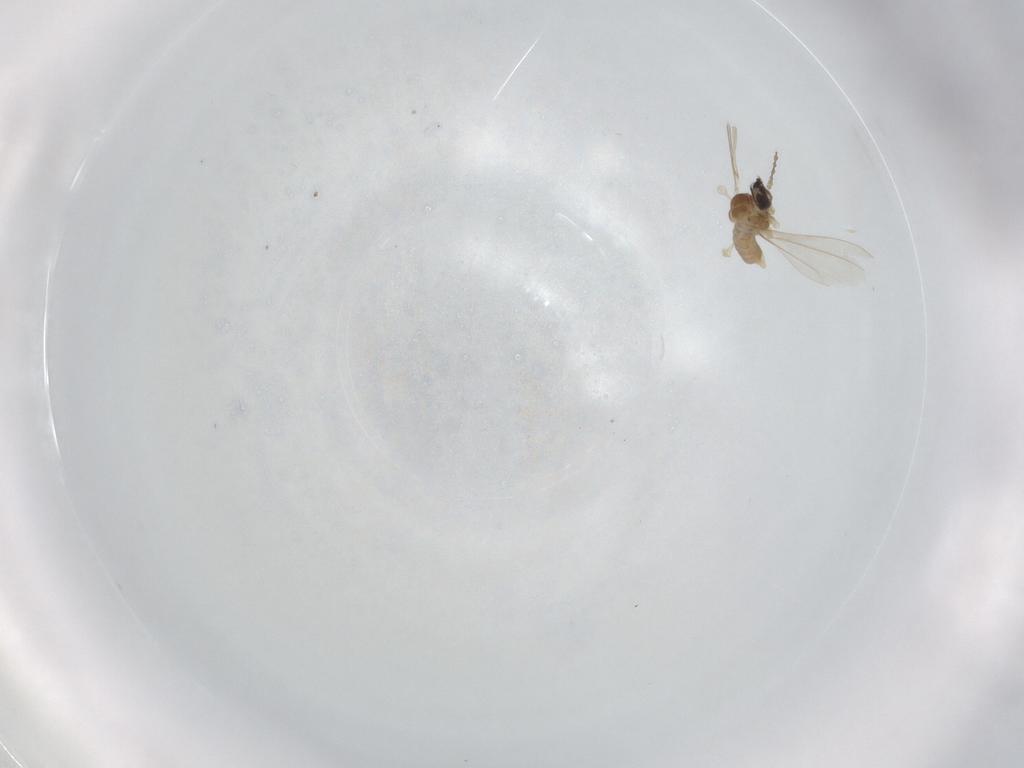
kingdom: Animalia
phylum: Arthropoda
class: Insecta
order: Diptera
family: Cecidomyiidae
